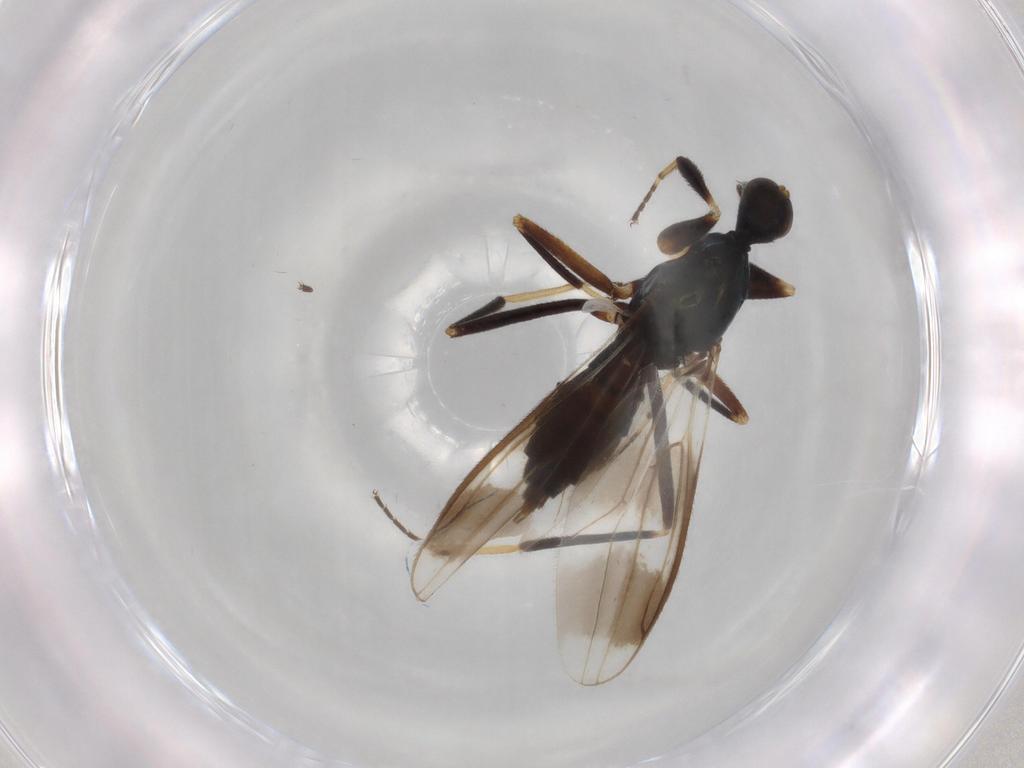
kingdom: Animalia
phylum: Arthropoda
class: Insecta
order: Diptera
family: Hybotidae
